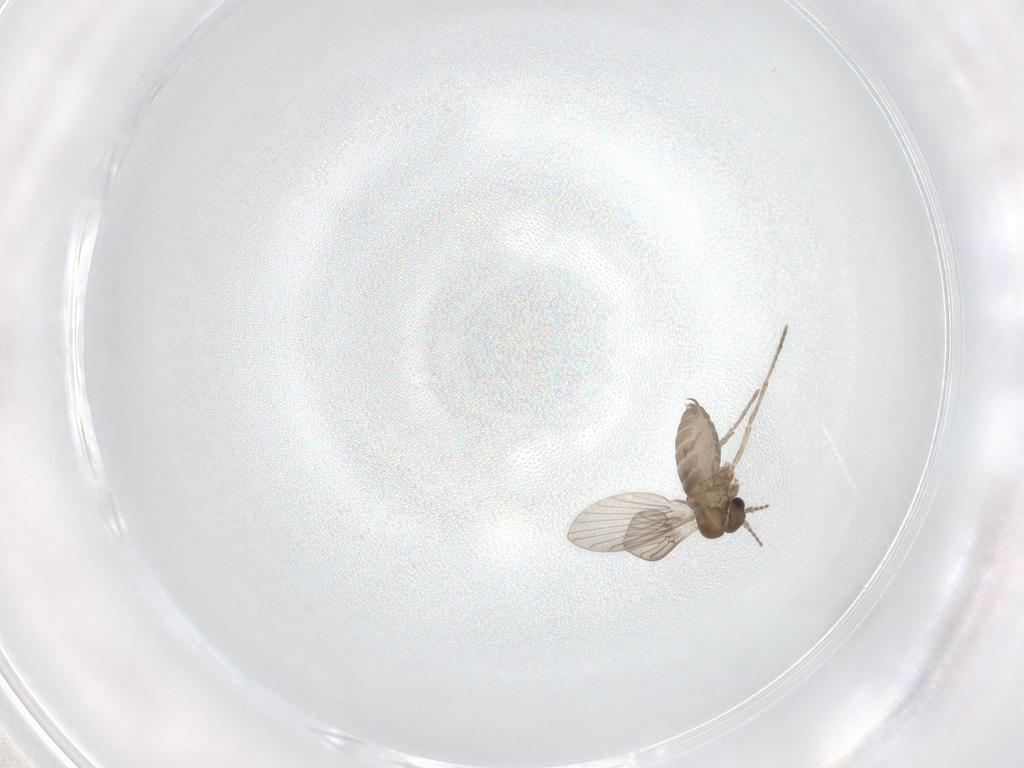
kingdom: Animalia
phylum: Arthropoda
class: Insecta
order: Diptera
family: Limoniidae
